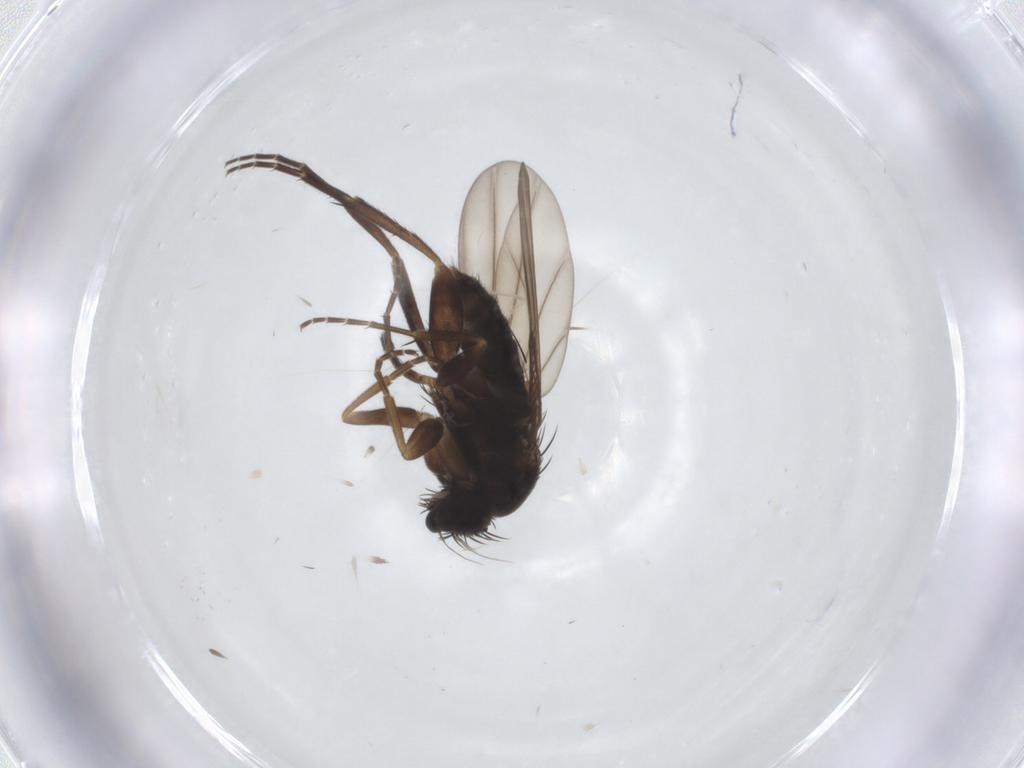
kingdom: Animalia
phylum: Arthropoda
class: Insecta
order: Diptera
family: Phoridae
